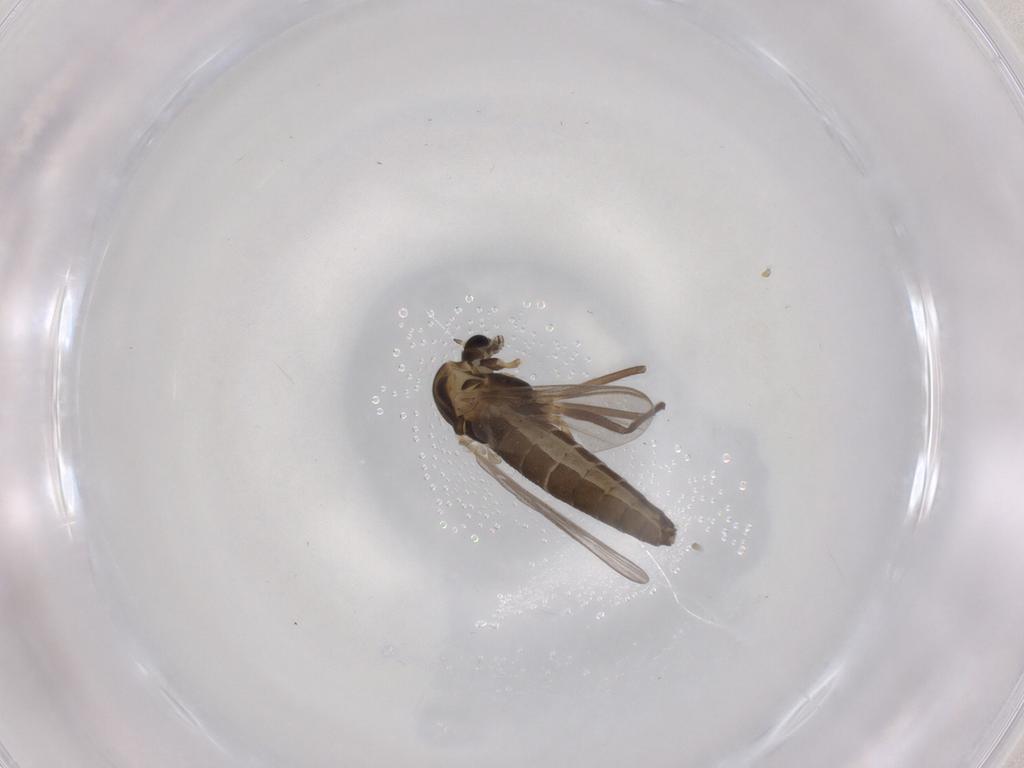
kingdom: Animalia
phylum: Arthropoda
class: Insecta
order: Diptera
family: Chironomidae
